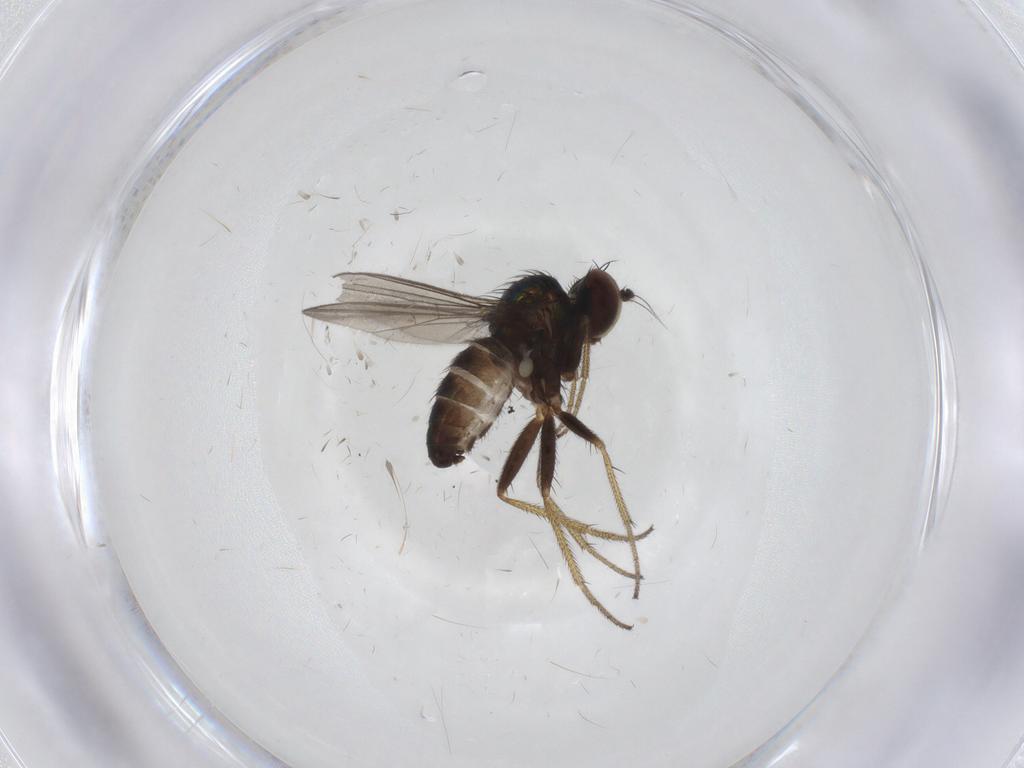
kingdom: Animalia
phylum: Arthropoda
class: Insecta
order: Diptera
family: Dolichopodidae
